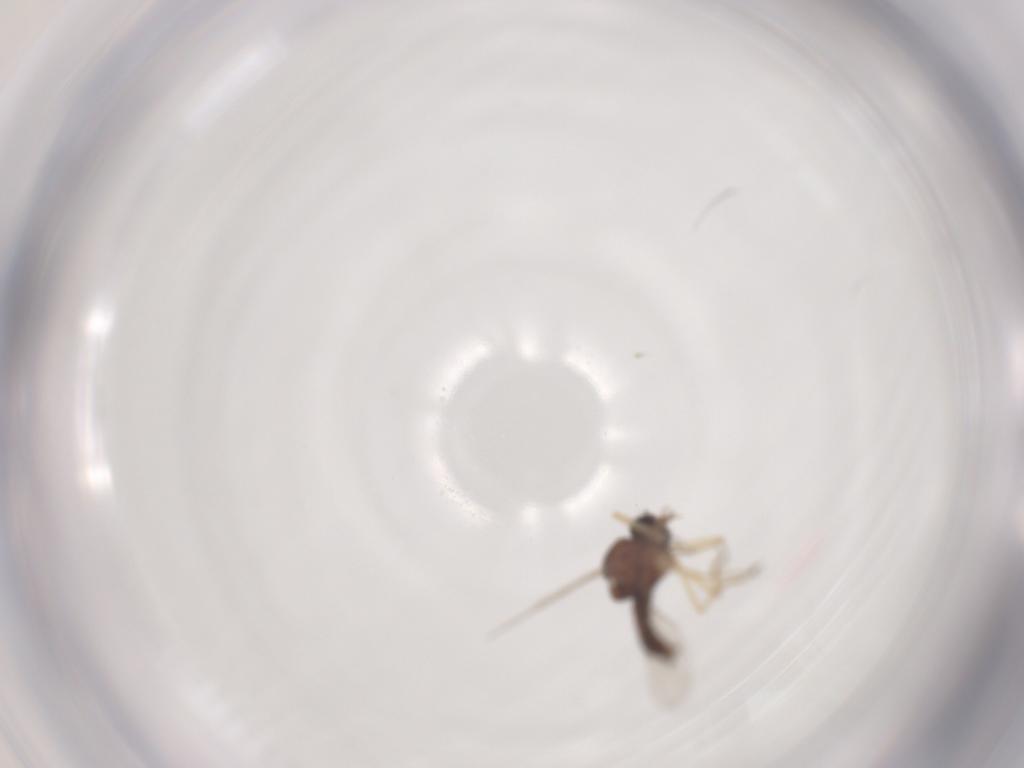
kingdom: Animalia
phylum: Arthropoda
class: Insecta
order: Diptera
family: Ceratopogonidae
